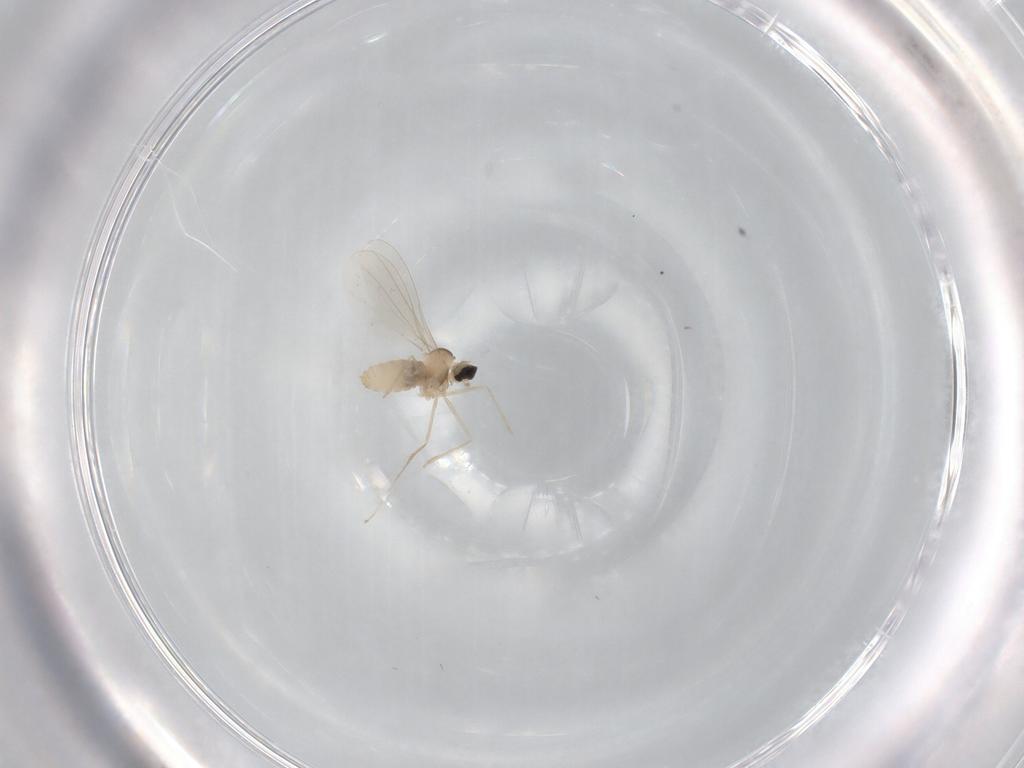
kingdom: Animalia
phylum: Arthropoda
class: Insecta
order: Diptera
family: Cecidomyiidae
